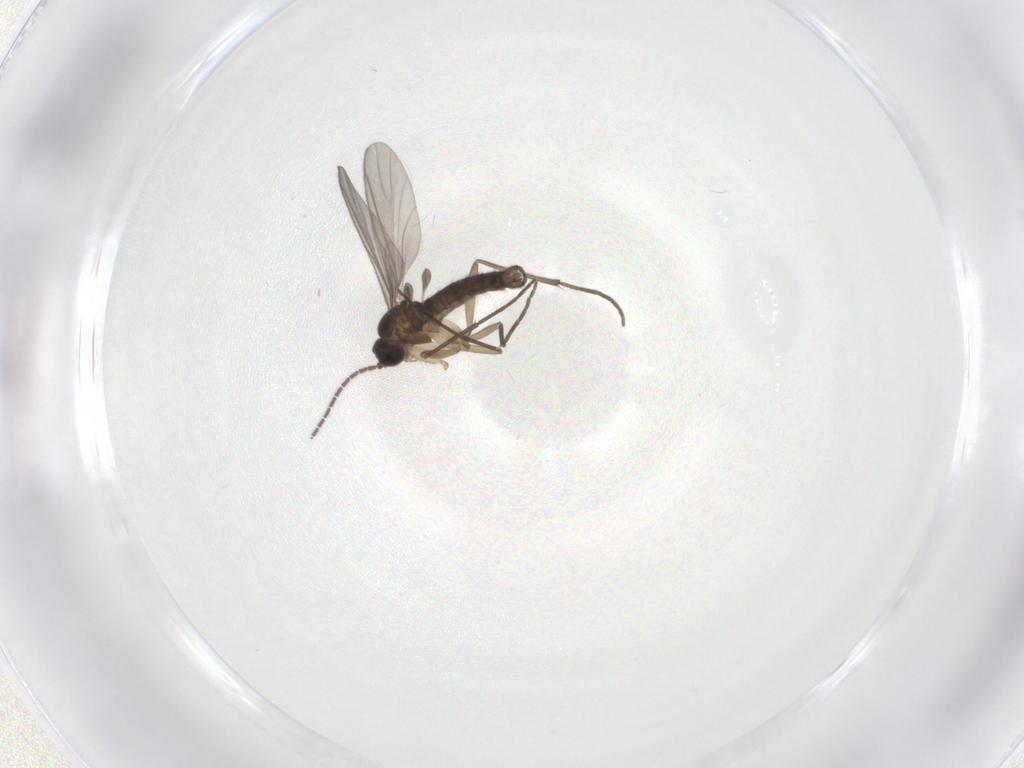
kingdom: Animalia
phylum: Arthropoda
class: Insecta
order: Diptera
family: Sciaridae
